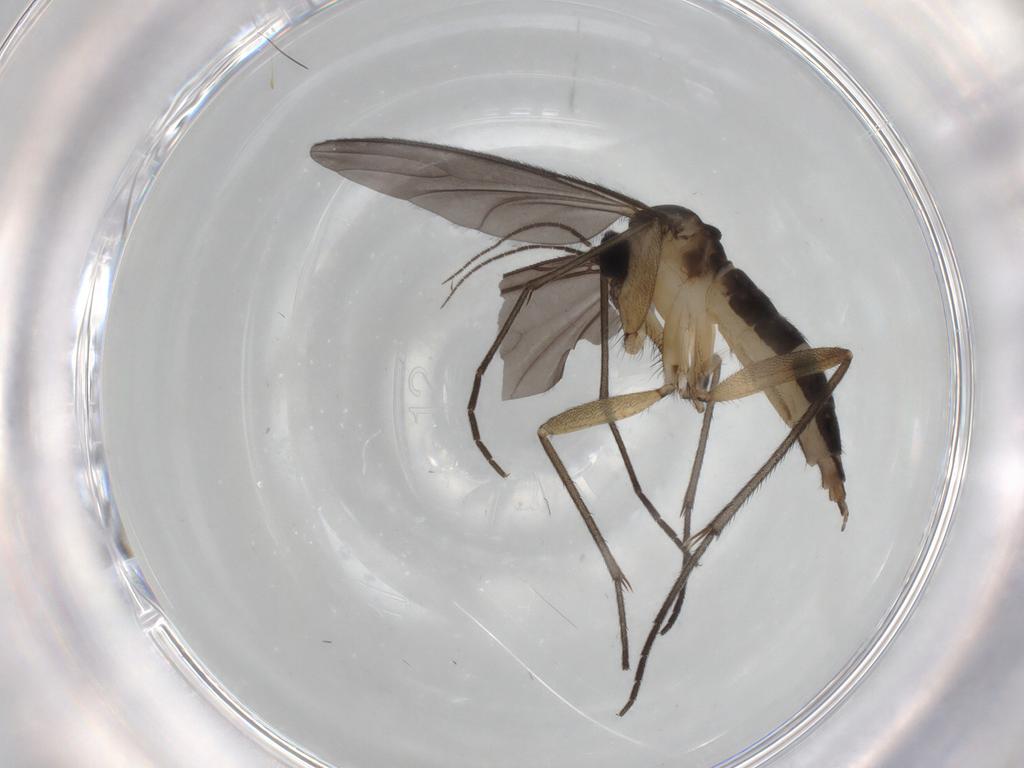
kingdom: Animalia
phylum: Arthropoda
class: Insecta
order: Diptera
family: Sciaridae
